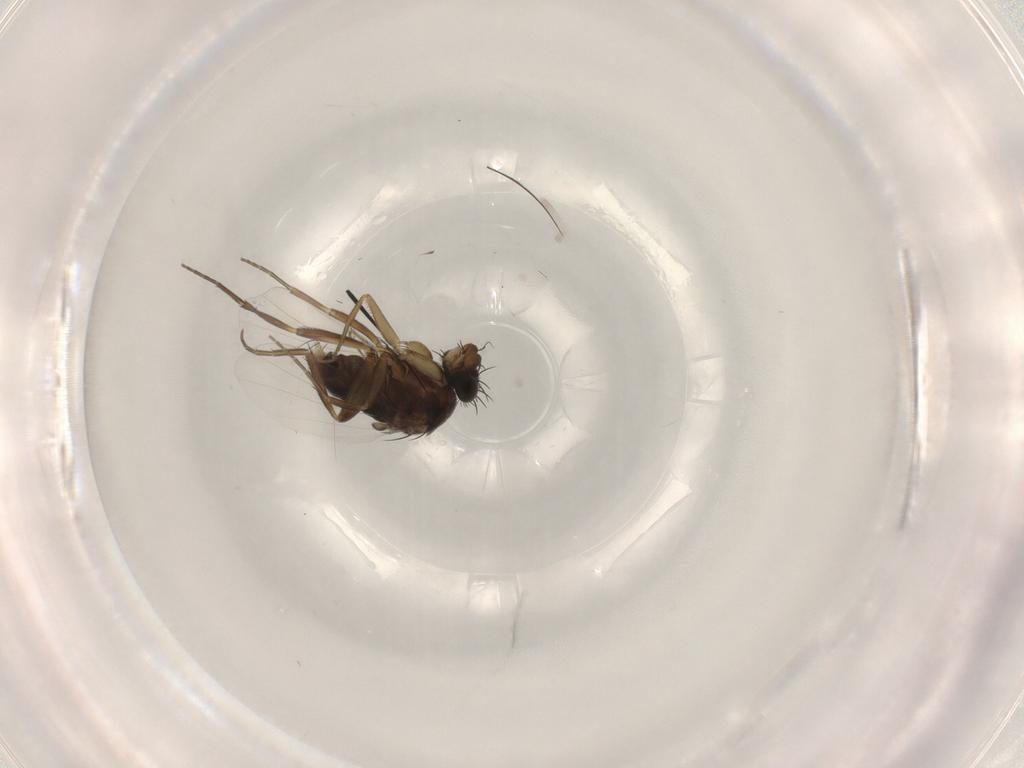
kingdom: Animalia
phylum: Arthropoda
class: Insecta
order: Diptera
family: Phoridae
